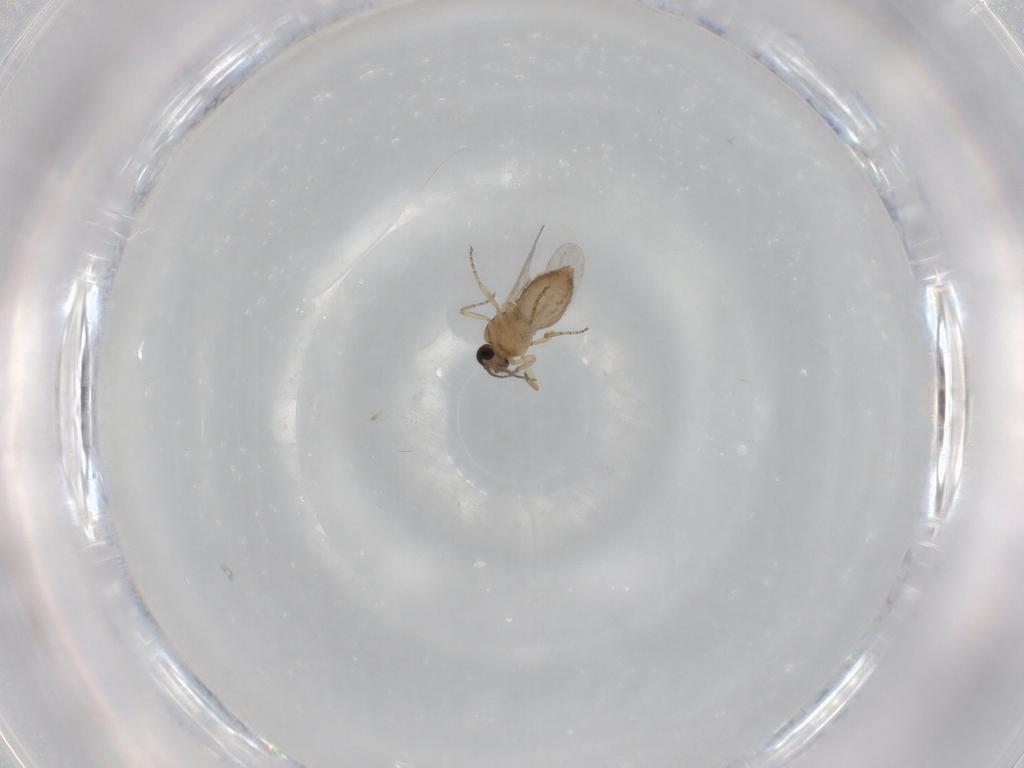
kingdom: Animalia
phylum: Arthropoda
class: Insecta
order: Diptera
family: Ceratopogonidae
